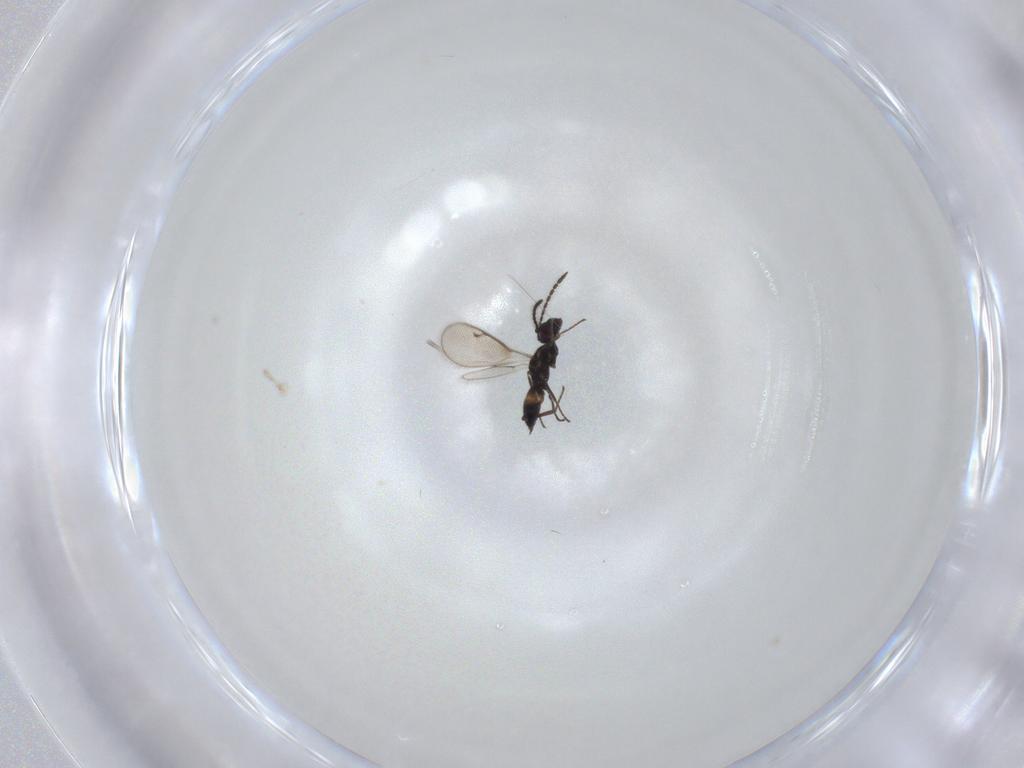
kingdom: Animalia
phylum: Arthropoda
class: Insecta
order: Hymenoptera
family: Eupelmidae
